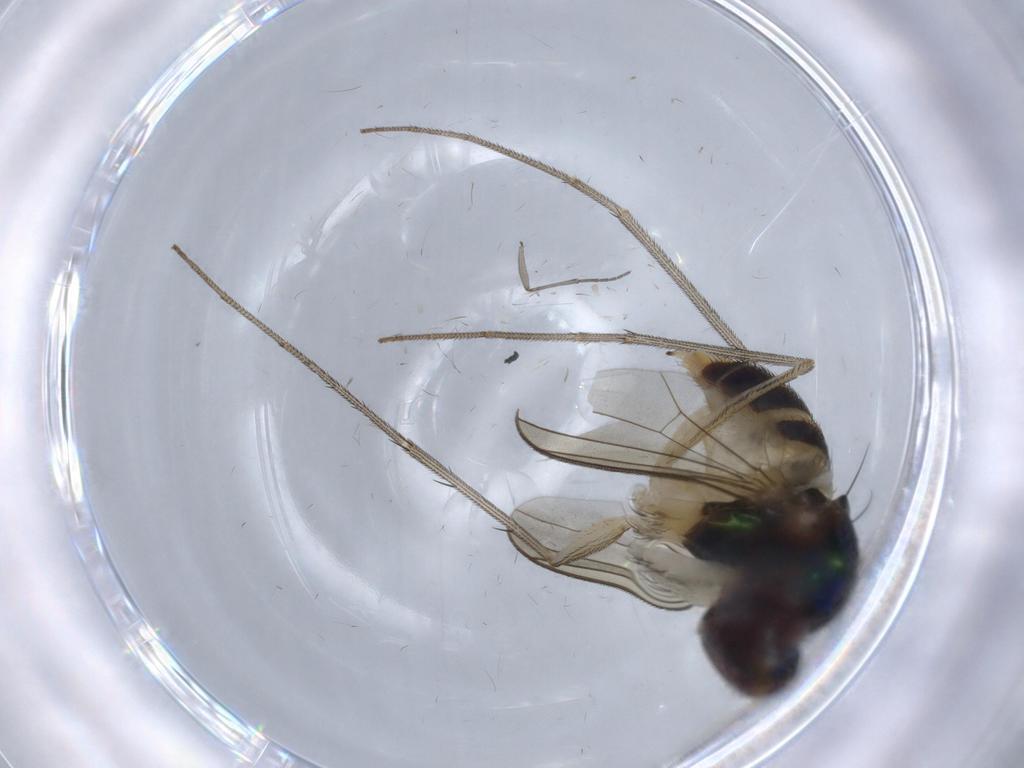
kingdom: Animalia
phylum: Arthropoda
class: Insecta
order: Diptera
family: Dolichopodidae
